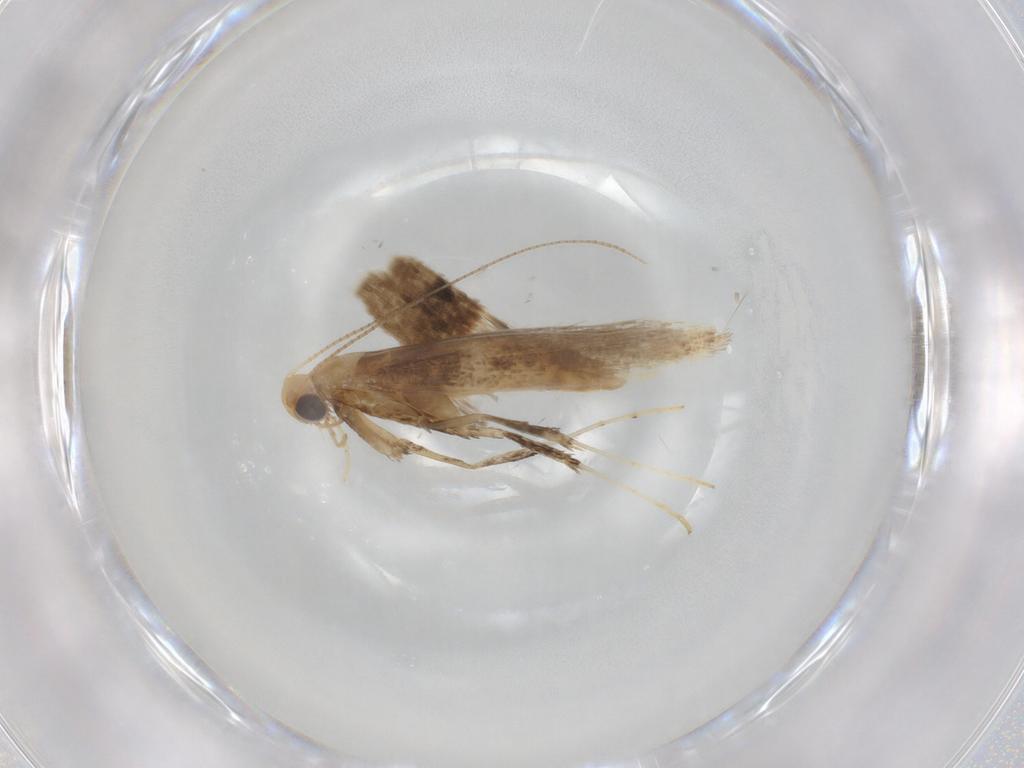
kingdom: Animalia
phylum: Arthropoda
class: Insecta
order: Lepidoptera
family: Gracillariidae
